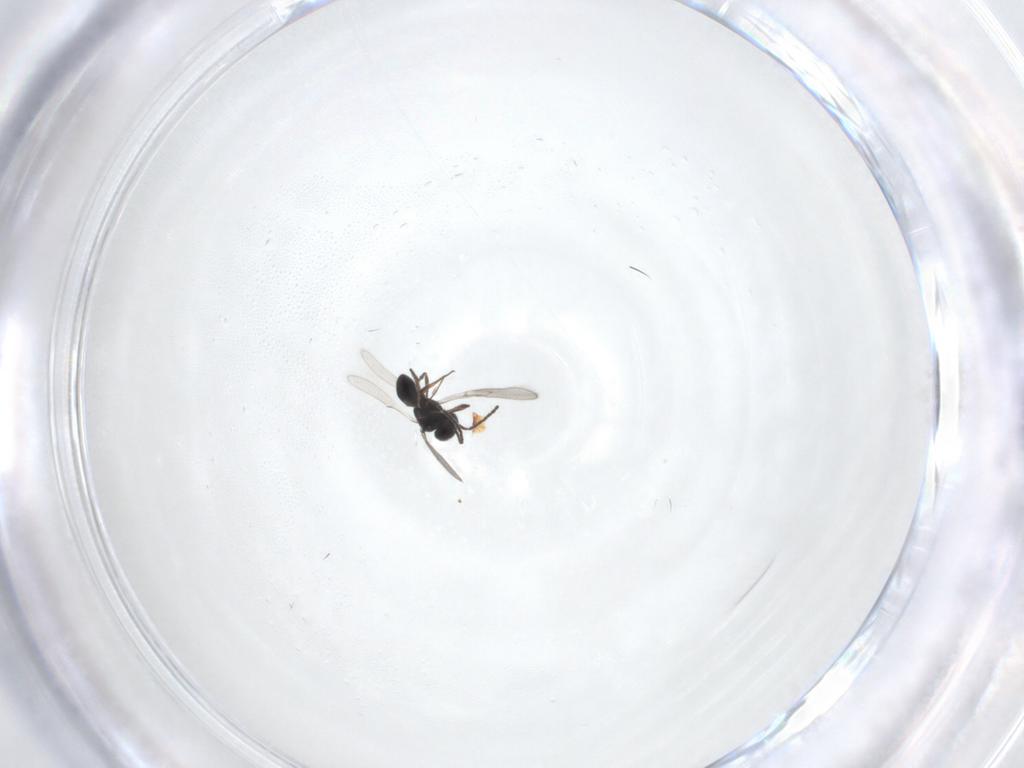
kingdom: Animalia
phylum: Arthropoda
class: Insecta
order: Hymenoptera
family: Scelionidae
